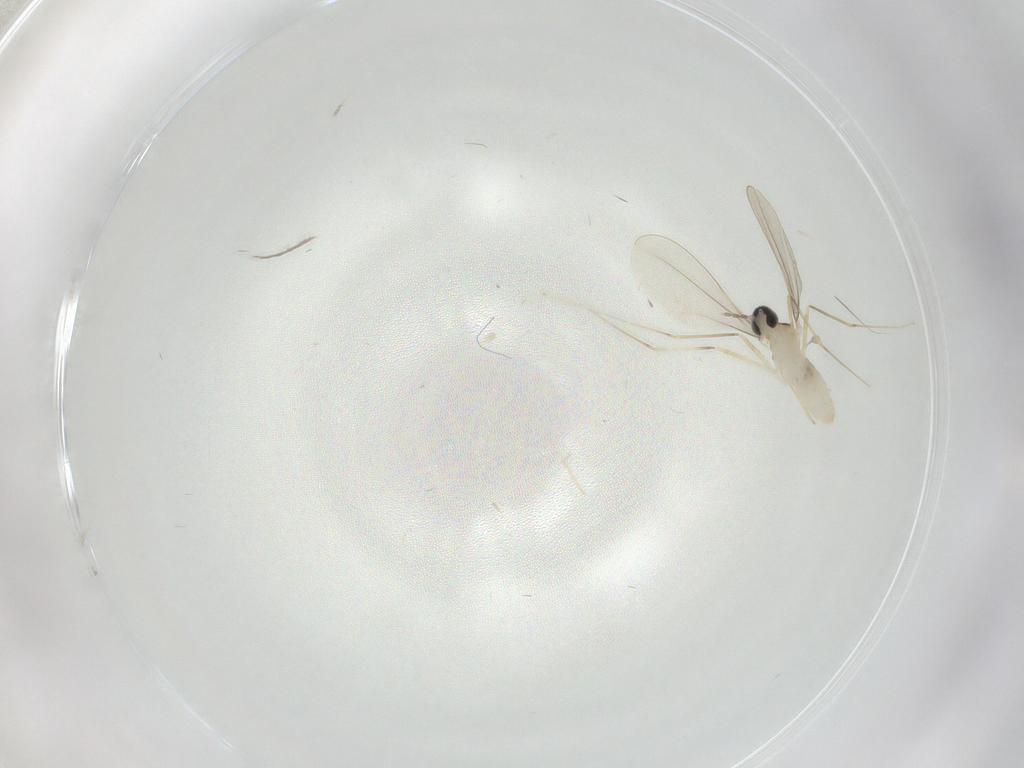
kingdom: Animalia
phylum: Arthropoda
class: Insecta
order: Diptera
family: Cecidomyiidae
